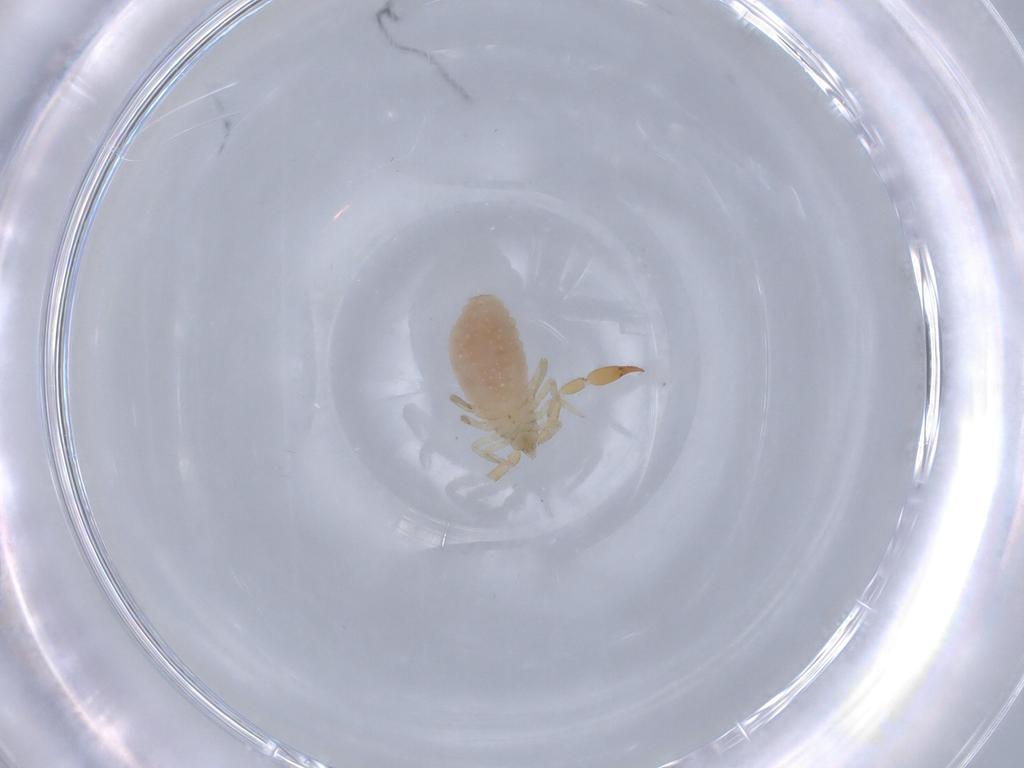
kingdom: Animalia
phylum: Arthropoda
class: Arachnida
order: Pseudoscorpiones
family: Withiidae
